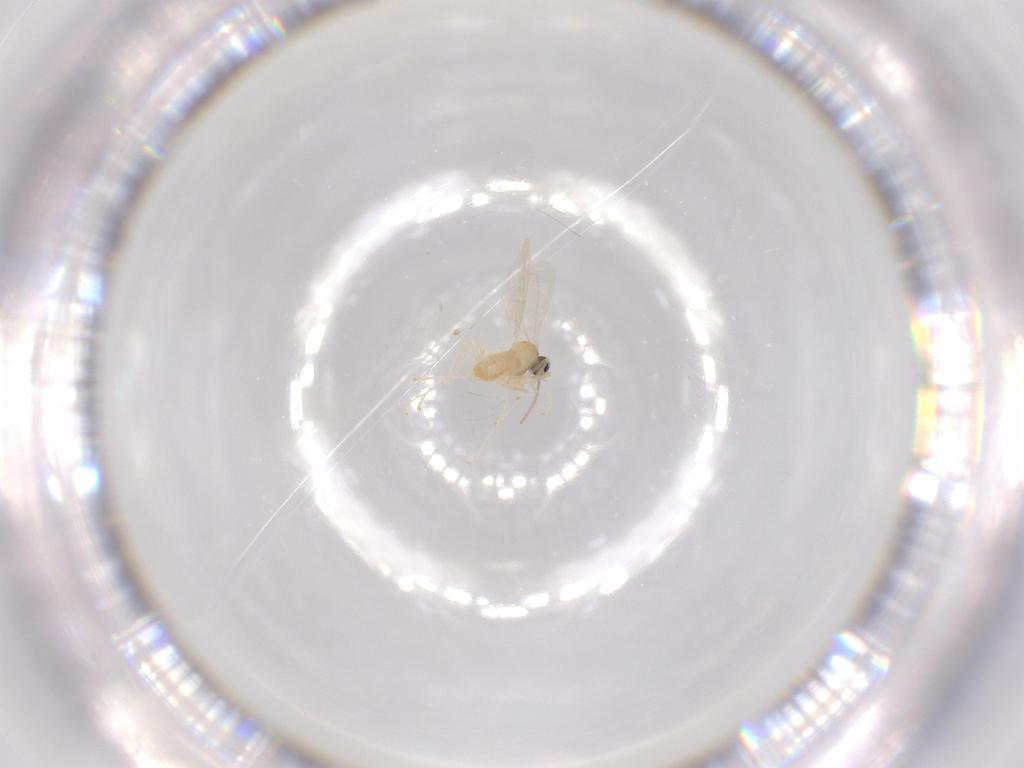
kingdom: Animalia
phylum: Arthropoda
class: Insecta
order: Diptera
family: Cecidomyiidae
